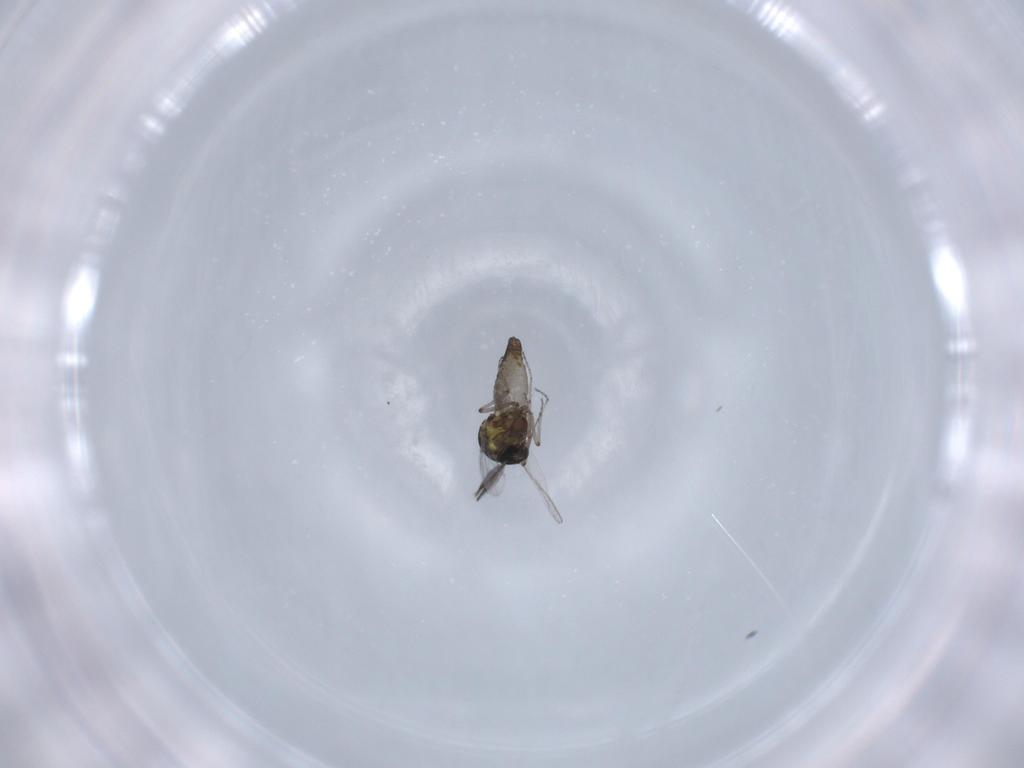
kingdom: Animalia
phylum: Arthropoda
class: Insecta
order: Diptera
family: Ceratopogonidae
